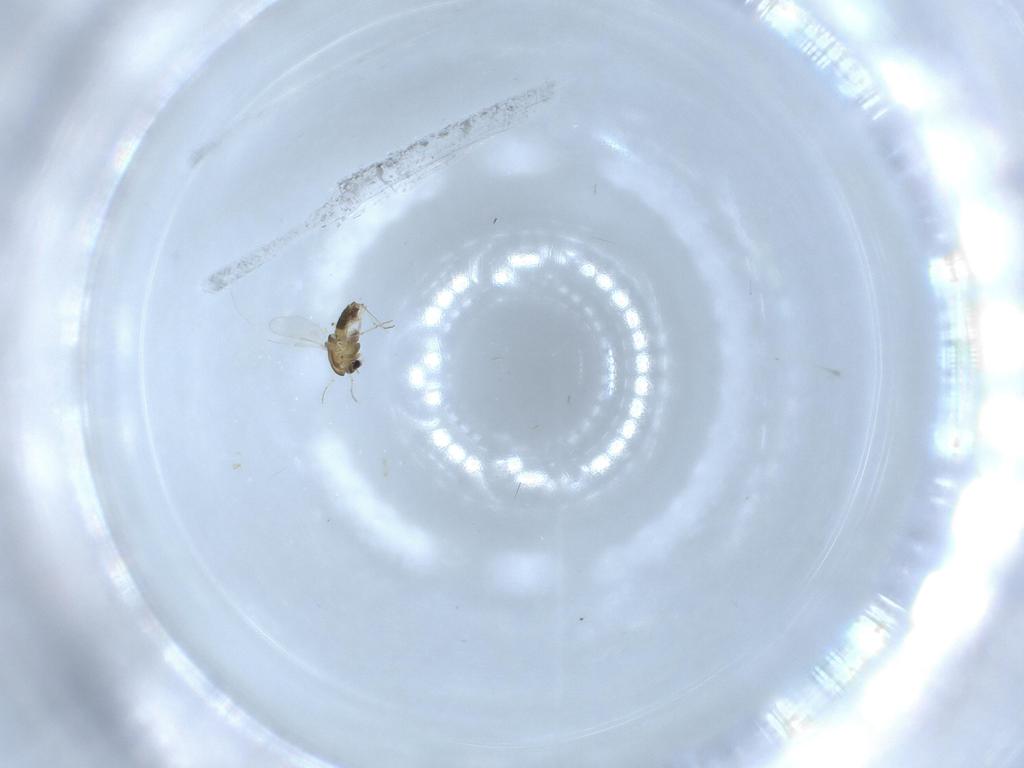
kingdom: Animalia
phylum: Arthropoda
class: Insecta
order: Diptera
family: Chironomidae
